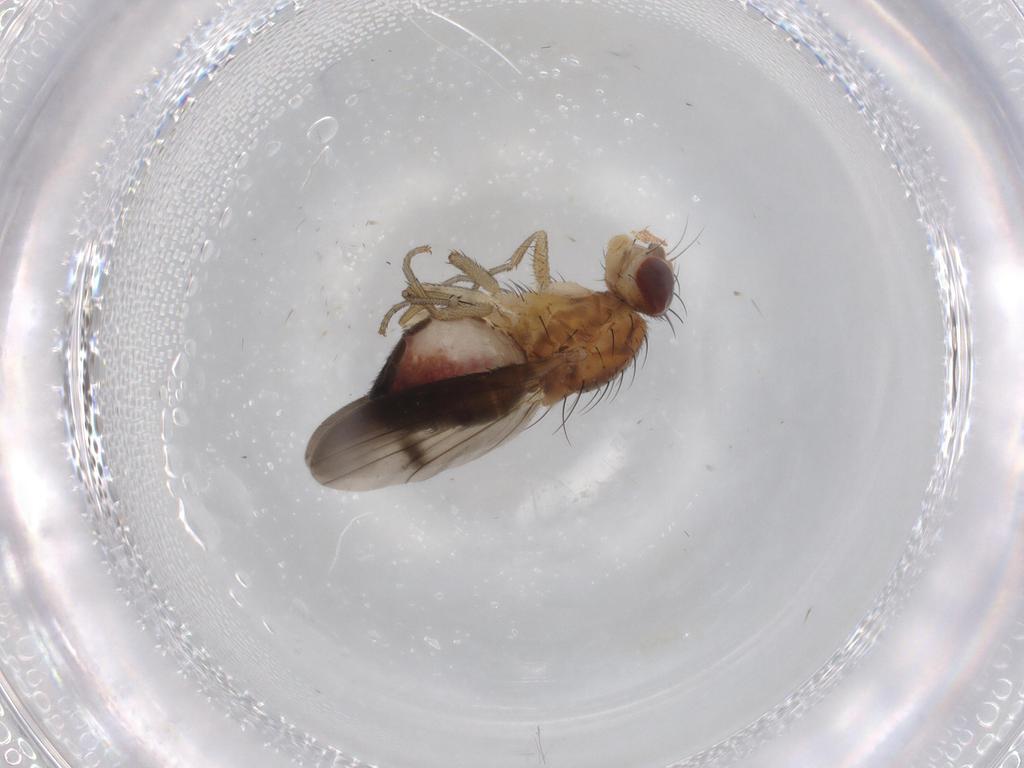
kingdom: Animalia
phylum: Arthropoda
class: Insecta
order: Diptera
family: Heleomyzidae
